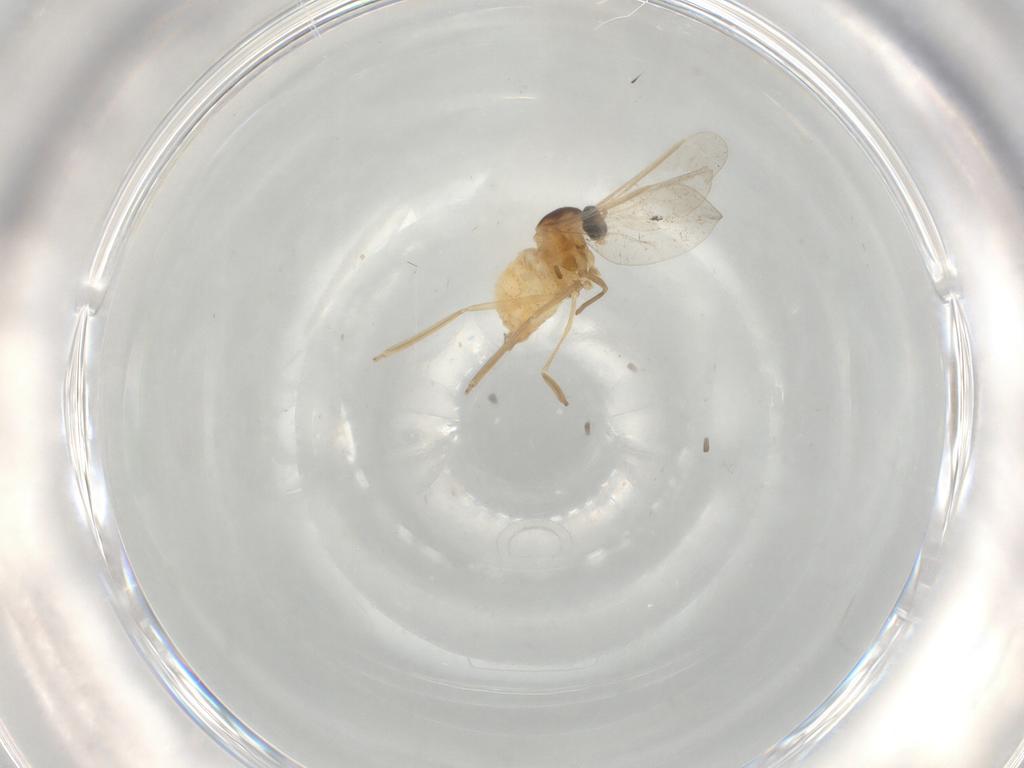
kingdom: Animalia
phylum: Arthropoda
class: Insecta
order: Diptera
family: Cecidomyiidae
